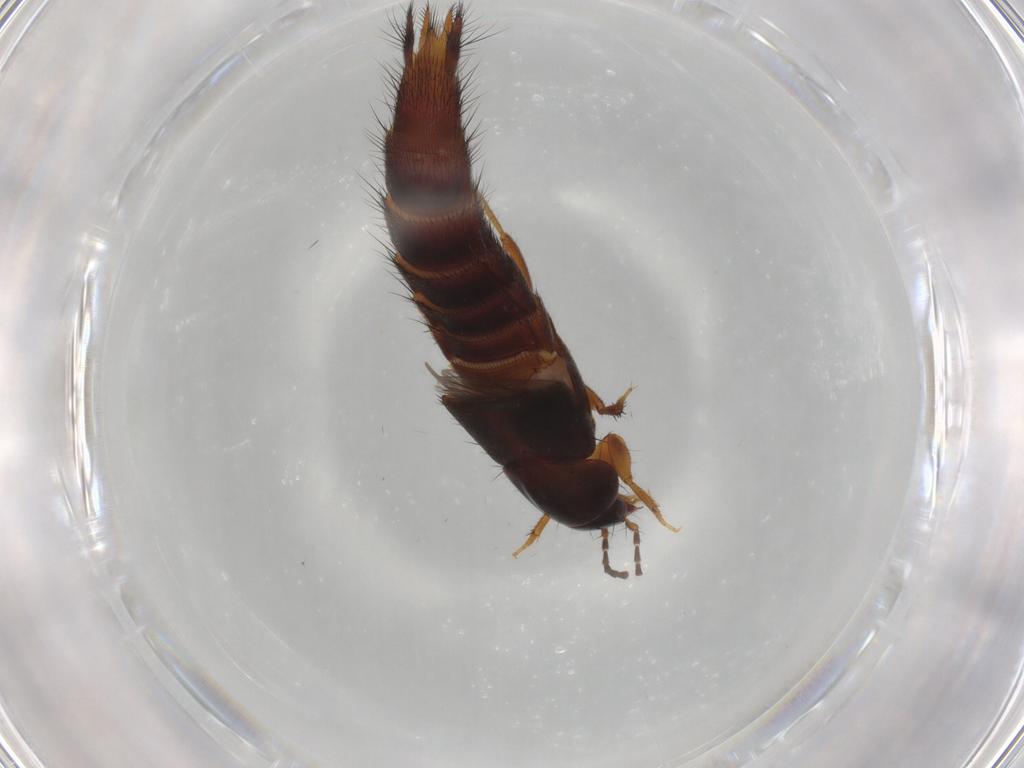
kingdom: Animalia
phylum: Arthropoda
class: Insecta
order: Coleoptera
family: Staphylinidae
